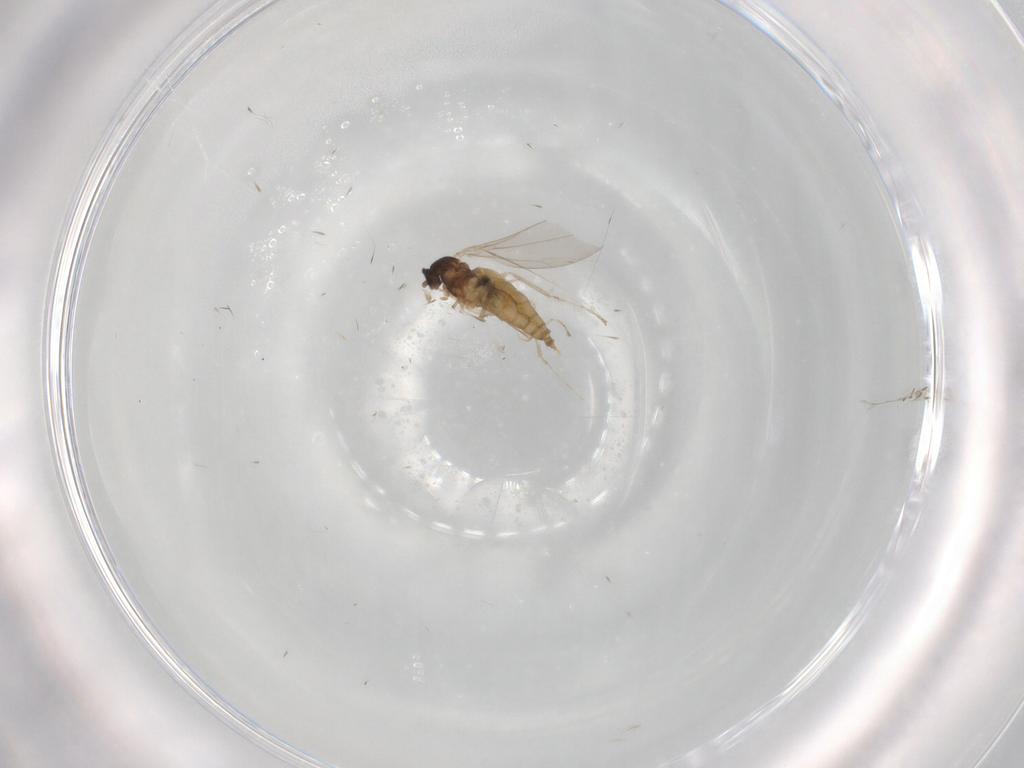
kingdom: Animalia
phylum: Arthropoda
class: Insecta
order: Diptera
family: Cecidomyiidae
